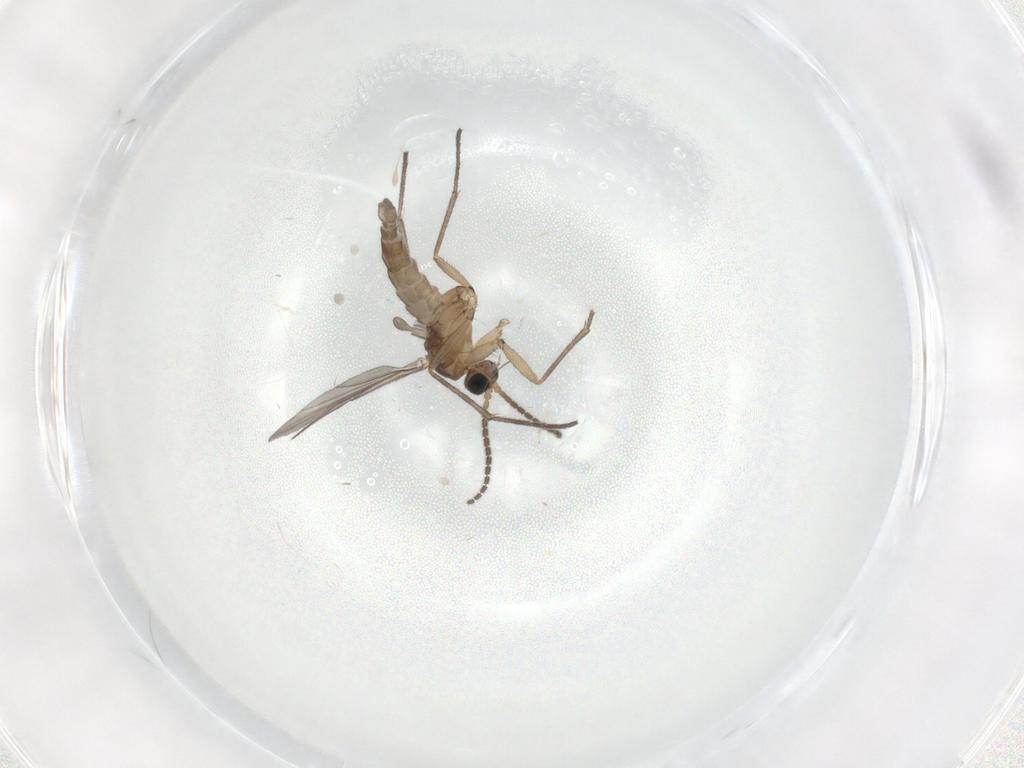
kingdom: Animalia
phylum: Arthropoda
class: Insecta
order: Diptera
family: Sciaridae
